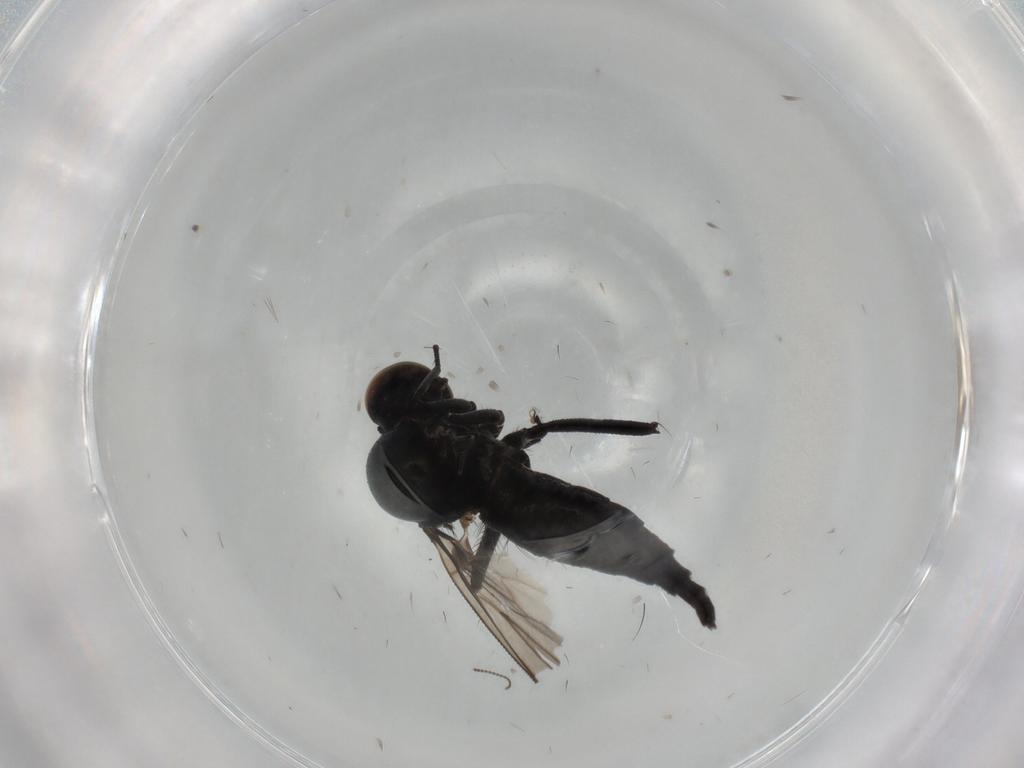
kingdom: Animalia
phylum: Arthropoda
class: Insecta
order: Diptera
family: Hybotidae
